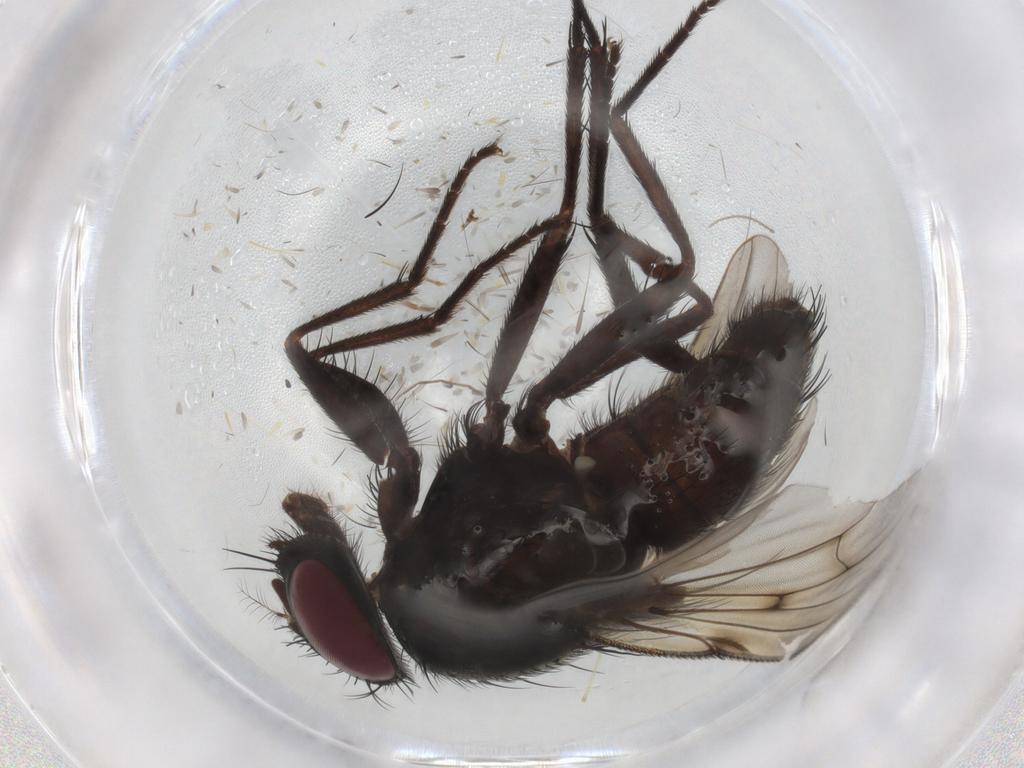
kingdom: Animalia
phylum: Arthropoda
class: Insecta
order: Diptera
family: Muscidae
